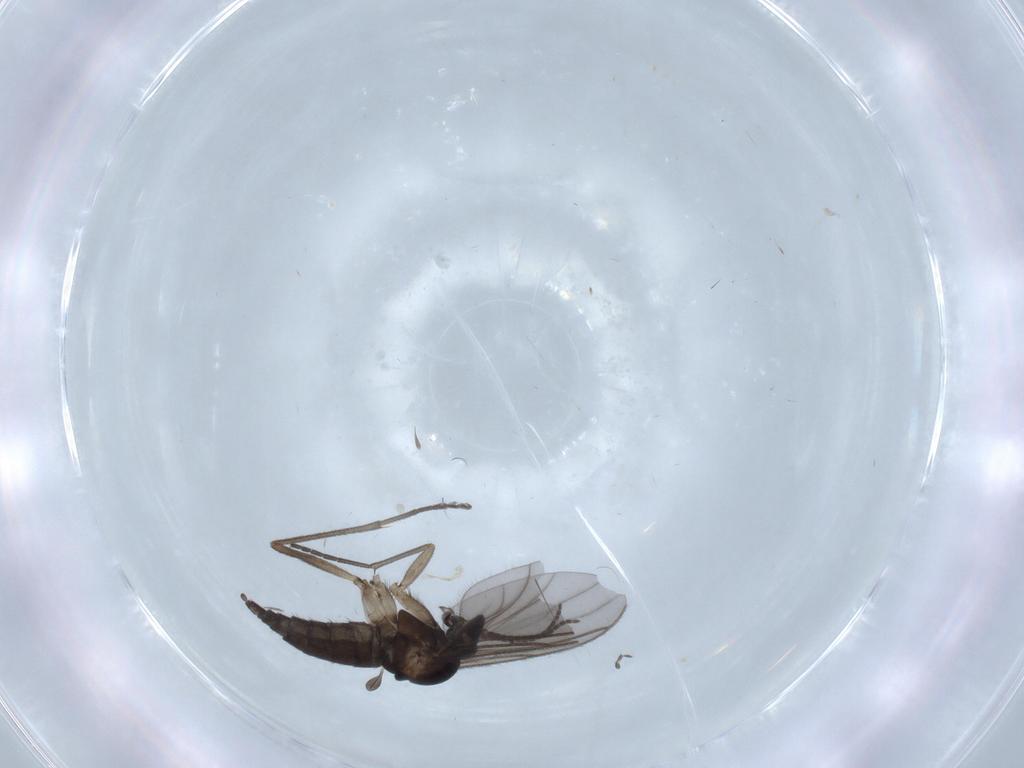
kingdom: Animalia
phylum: Arthropoda
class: Insecta
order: Diptera
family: Sciaridae
